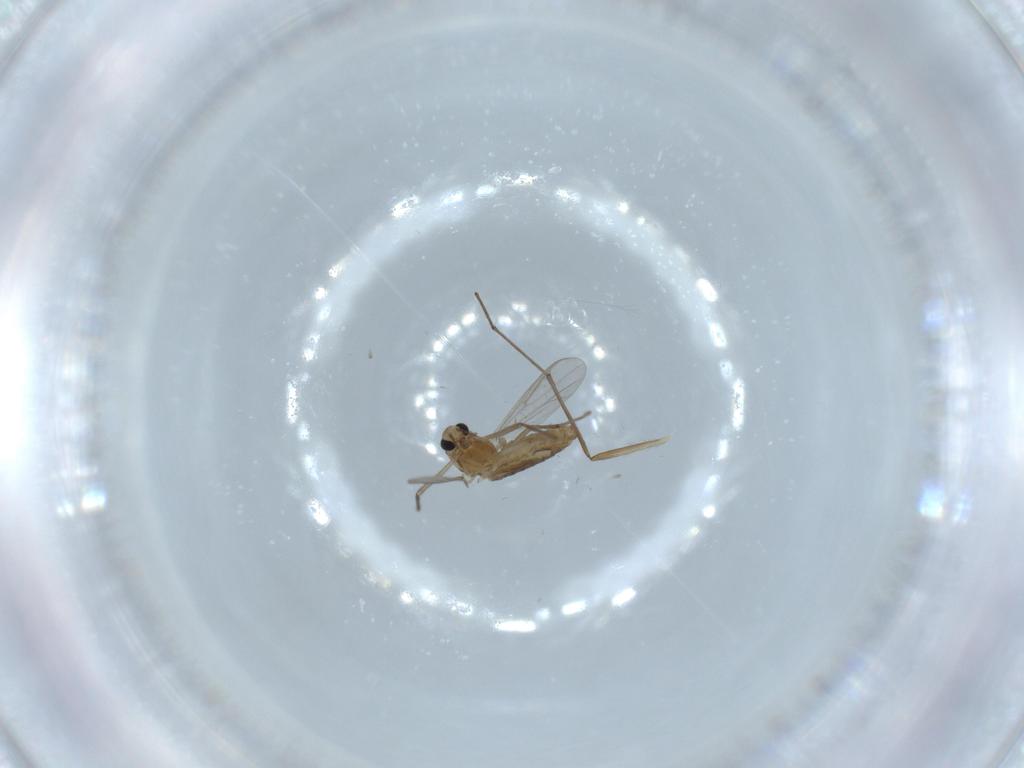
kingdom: Animalia
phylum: Arthropoda
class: Insecta
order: Diptera
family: Chironomidae
